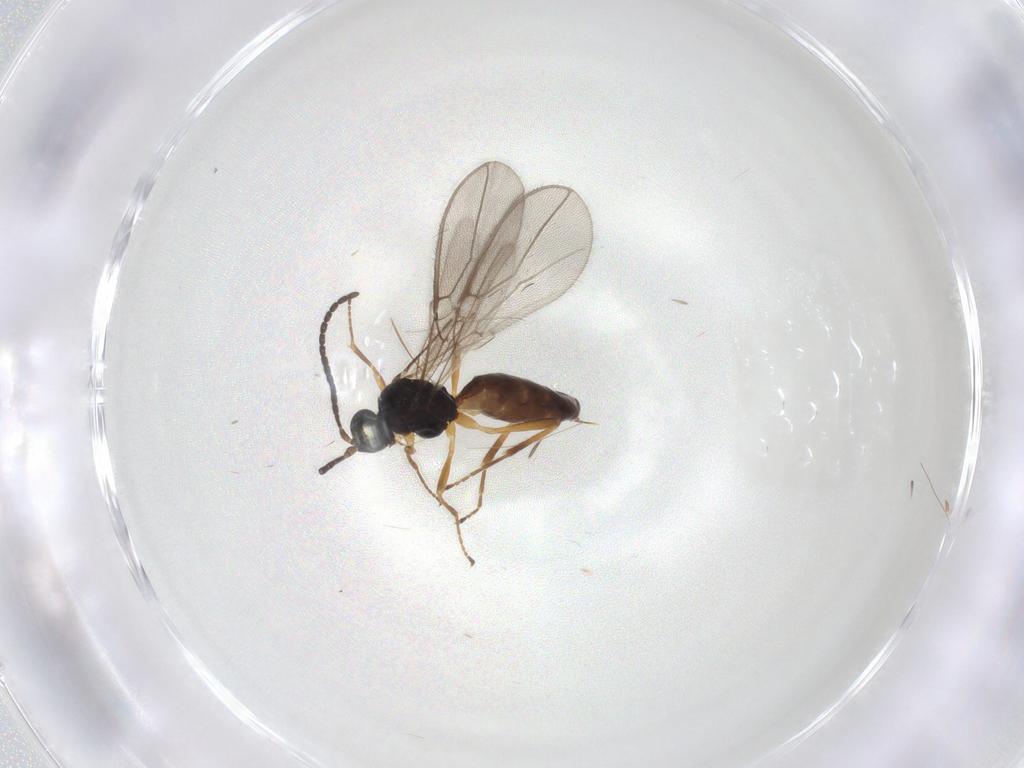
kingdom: Animalia
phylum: Arthropoda
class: Insecta
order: Hymenoptera
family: Braconidae
